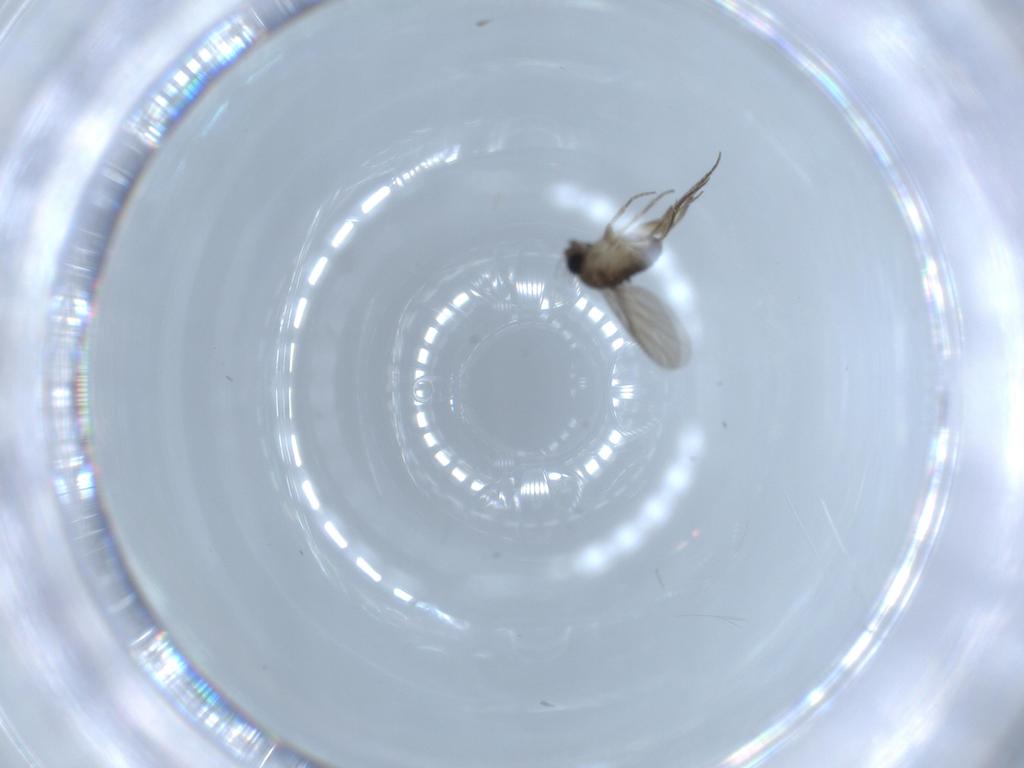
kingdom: Animalia
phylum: Arthropoda
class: Insecta
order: Diptera
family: Phoridae
